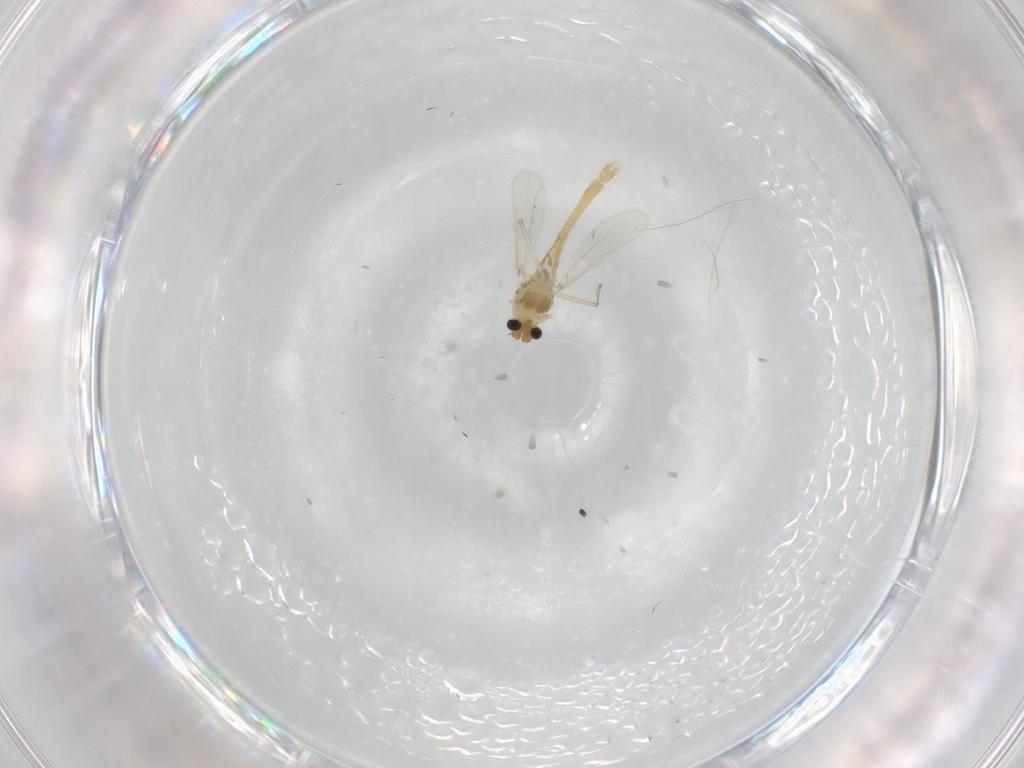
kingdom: Animalia
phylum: Arthropoda
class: Insecta
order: Diptera
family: Chironomidae
